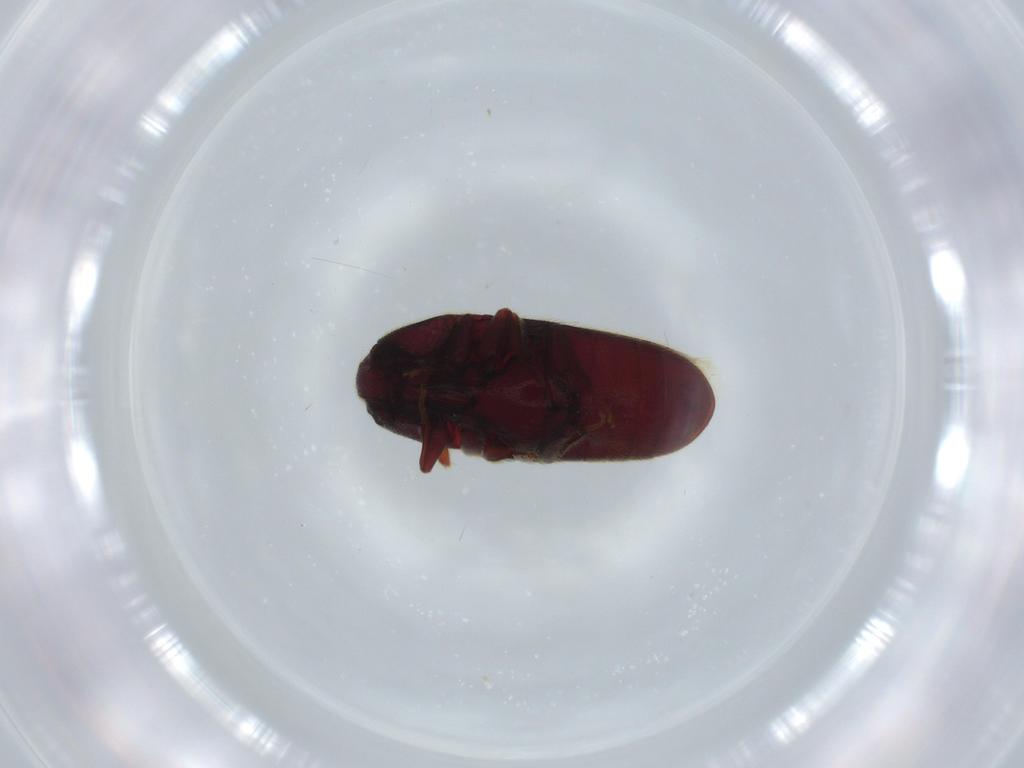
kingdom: Animalia
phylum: Arthropoda
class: Insecta
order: Coleoptera
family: Throscidae
